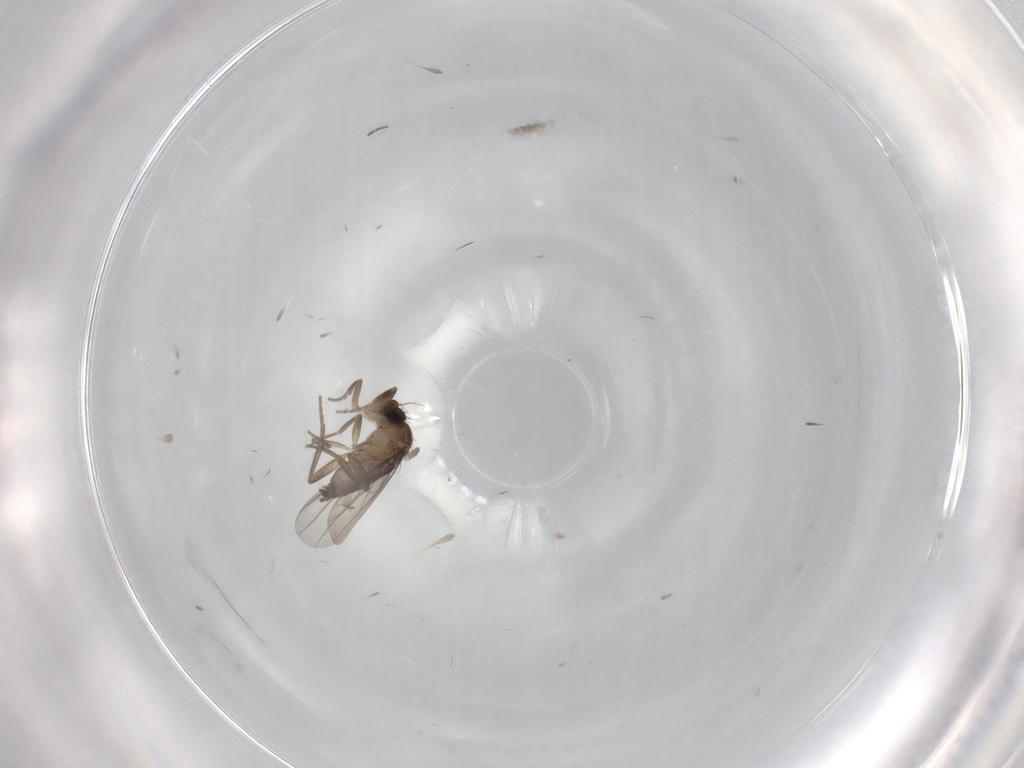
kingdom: Animalia
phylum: Arthropoda
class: Insecta
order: Diptera
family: Phoridae
